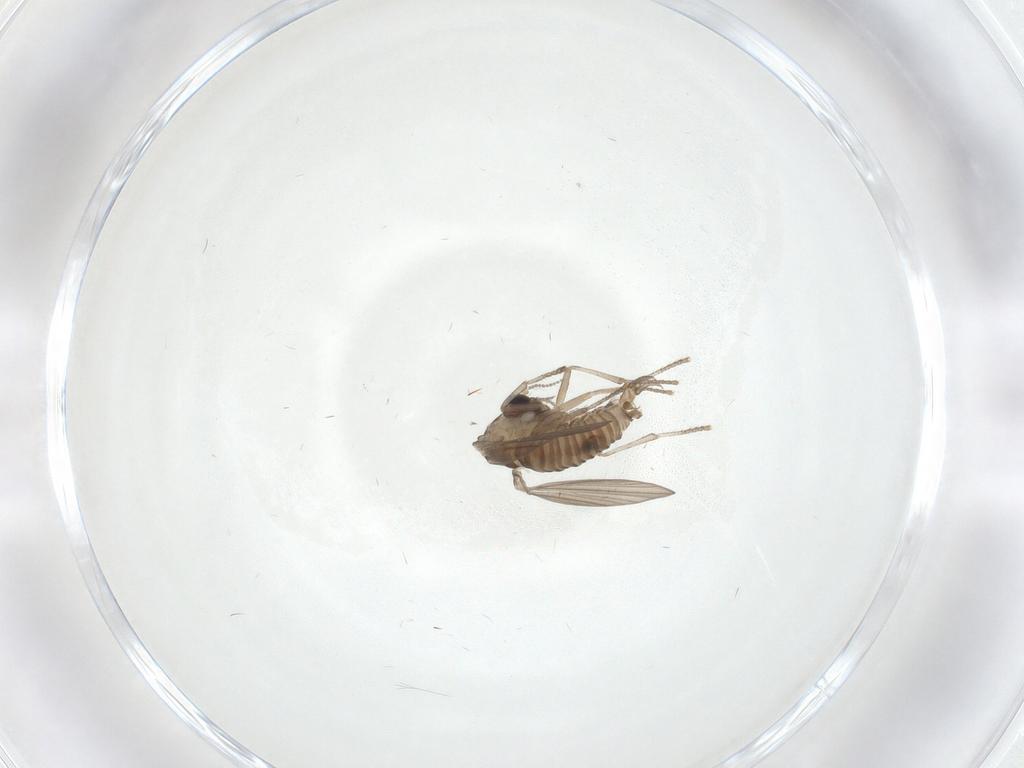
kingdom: Animalia
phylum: Arthropoda
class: Insecta
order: Diptera
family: Psychodidae
